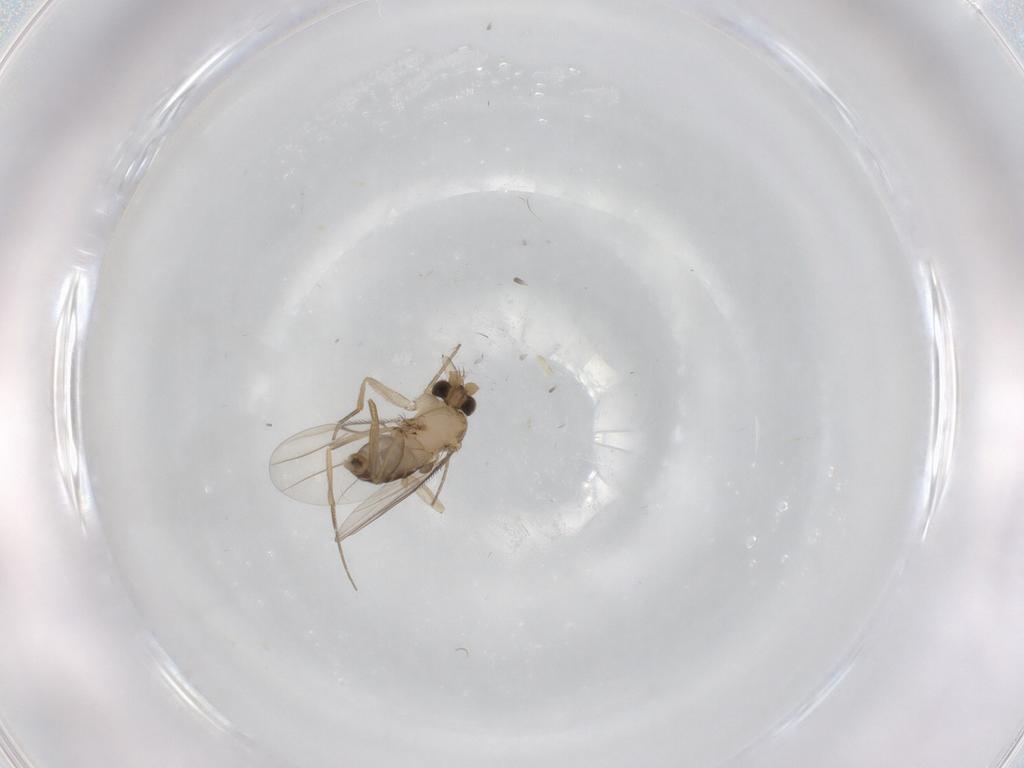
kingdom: Animalia
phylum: Arthropoda
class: Insecta
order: Diptera
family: Phoridae
